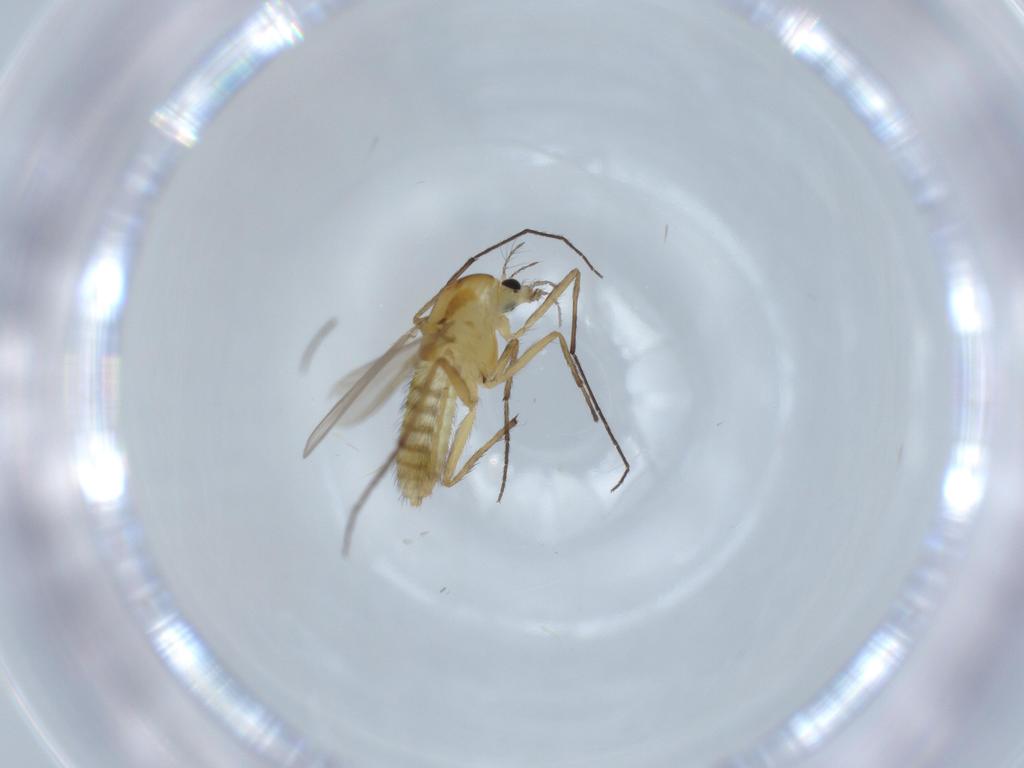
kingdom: Animalia
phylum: Arthropoda
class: Insecta
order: Diptera
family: Chironomidae
